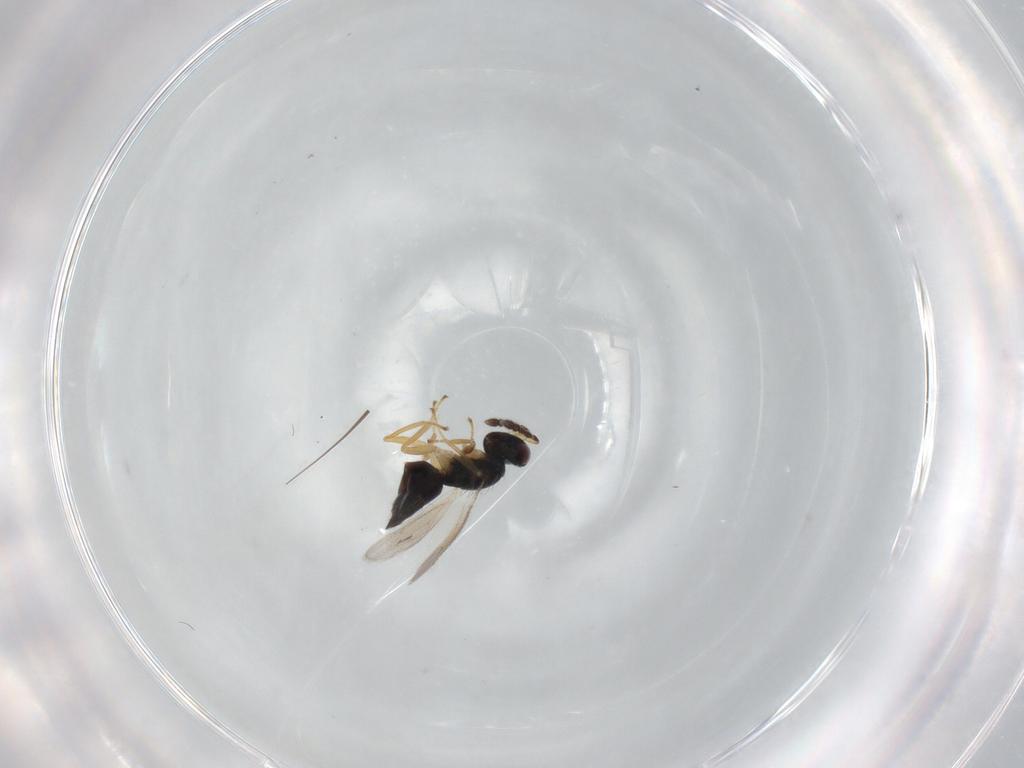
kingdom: Animalia
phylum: Arthropoda
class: Insecta
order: Hymenoptera
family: Eulophidae
